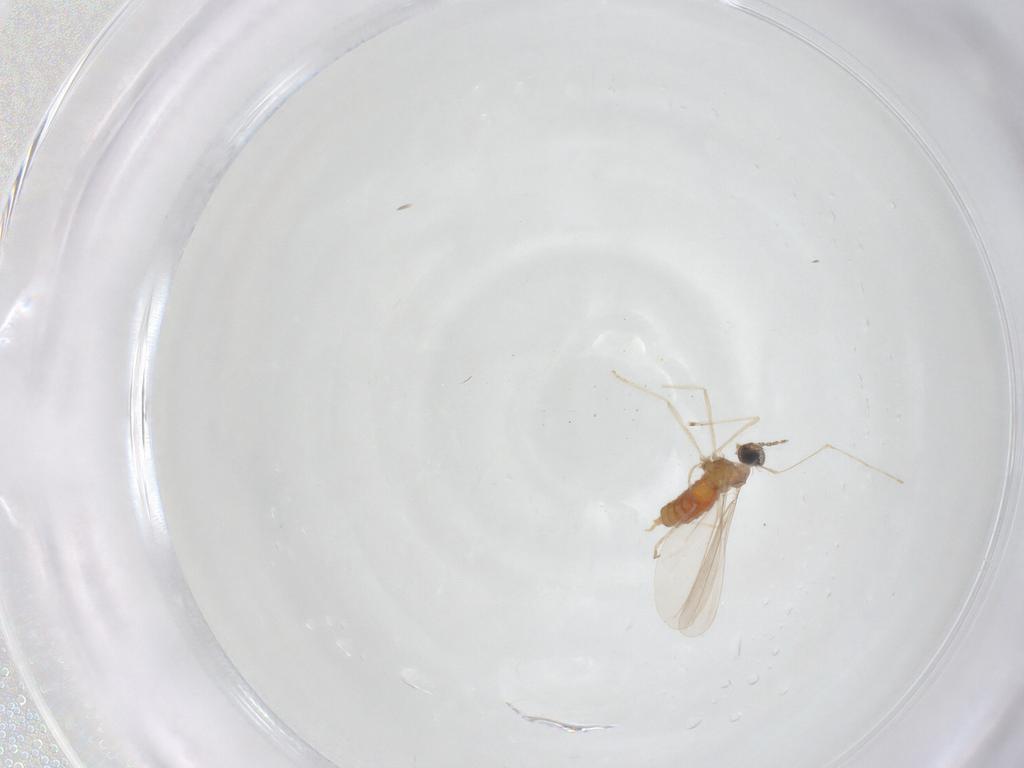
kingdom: Animalia
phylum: Arthropoda
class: Insecta
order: Diptera
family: Cecidomyiidae
